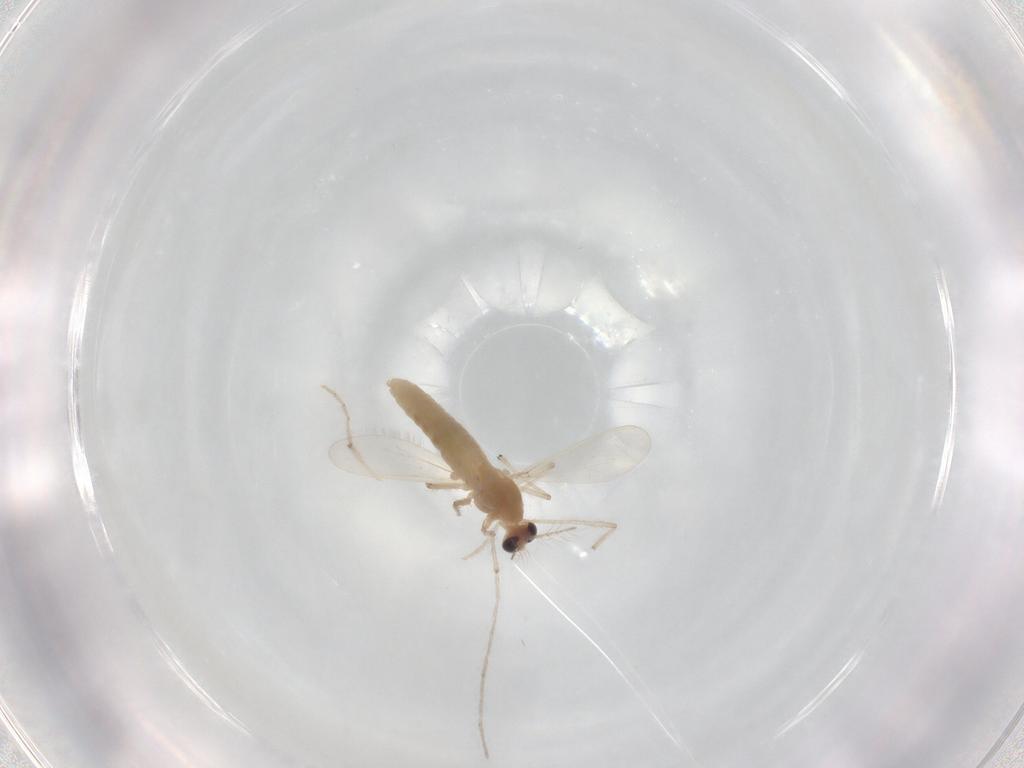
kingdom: Animalia
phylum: Arthropoda
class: Insecta
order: Diptera
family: Chironomidae
